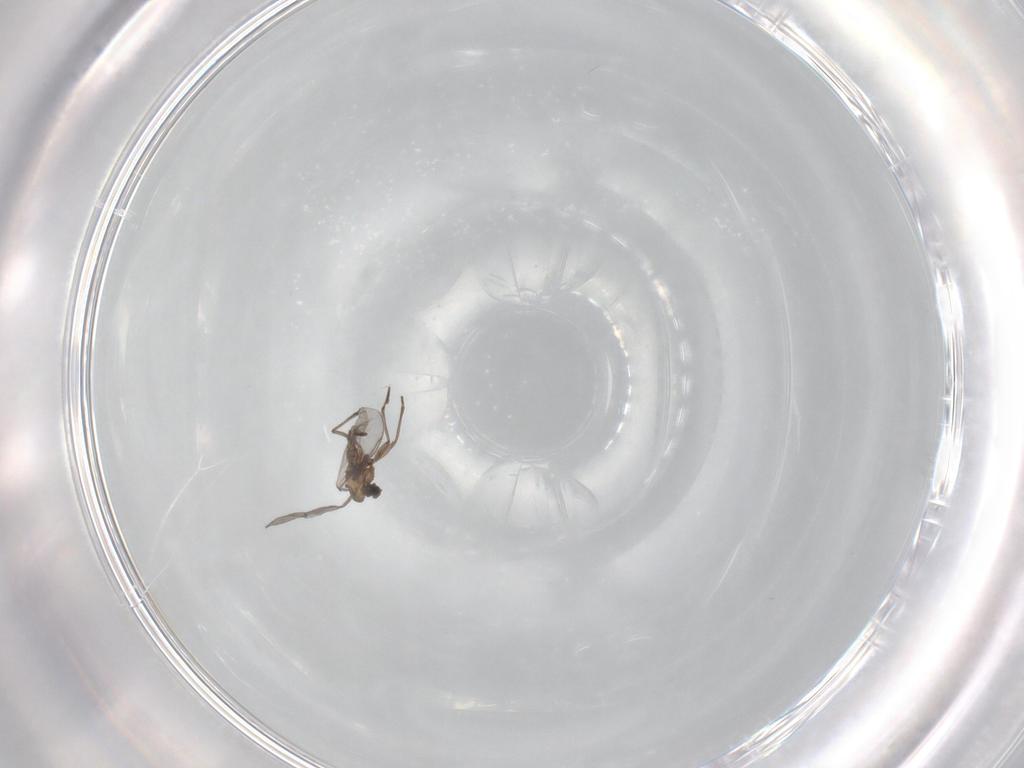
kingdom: Animalia
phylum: Arthropoda
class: Insecta
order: Diptera
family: Sciaridae
